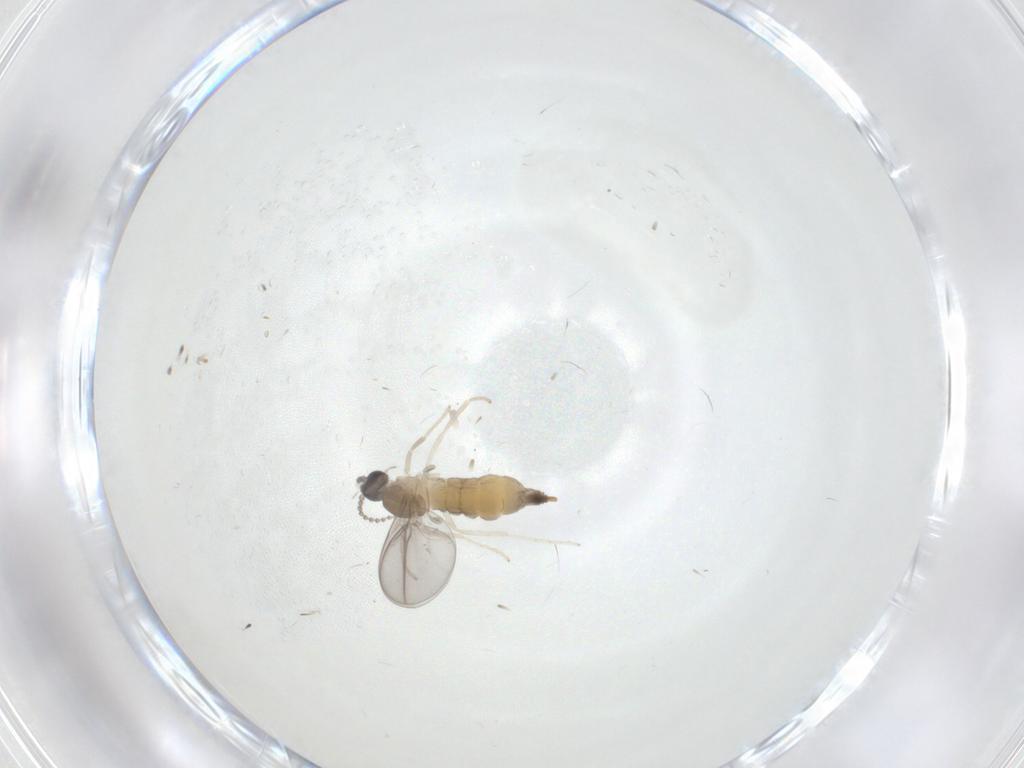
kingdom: Animalia
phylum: Arthropoda
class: Insecta
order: Diptera
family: Cecidomyiidae
